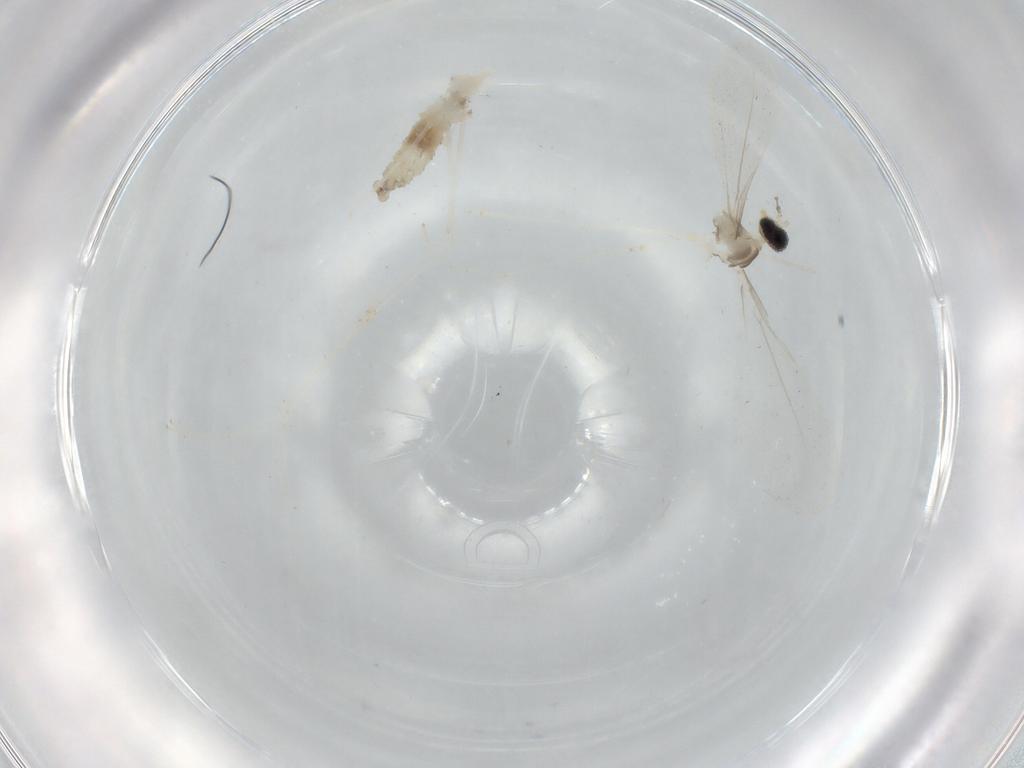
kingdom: Animalia
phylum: Arthropoda
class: Insecta
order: Diptera
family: Cecidomyiidae
